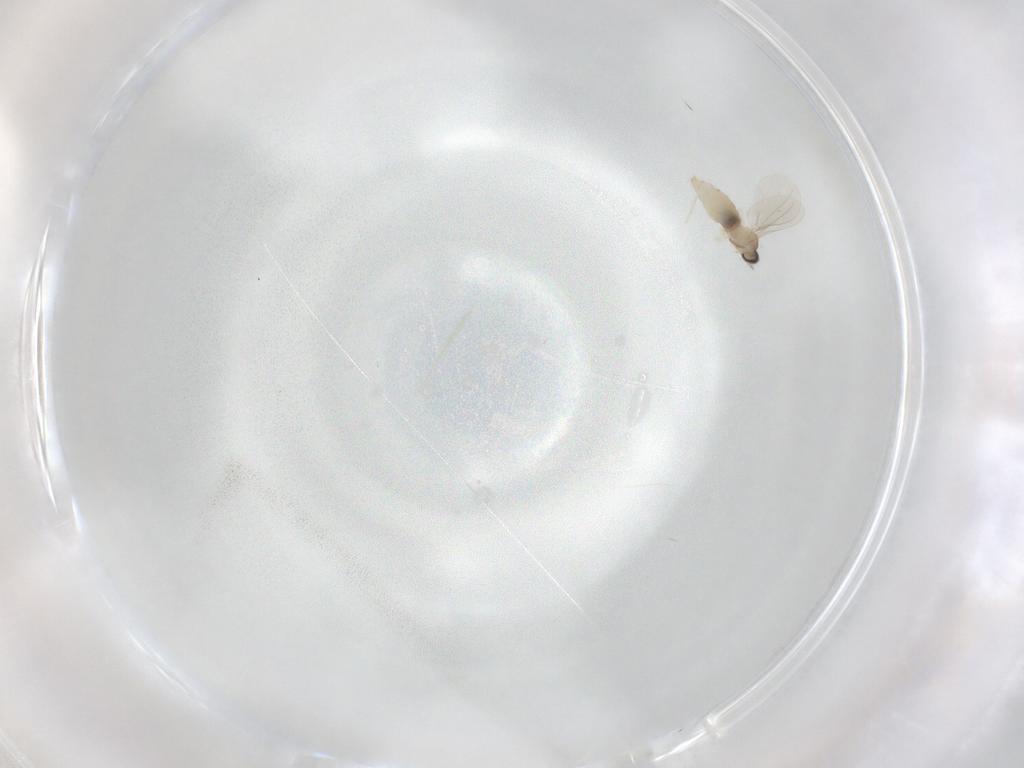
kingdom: Animalia
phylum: Arthropoda
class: Insecta
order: Diptera
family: Cecidomyiidae
